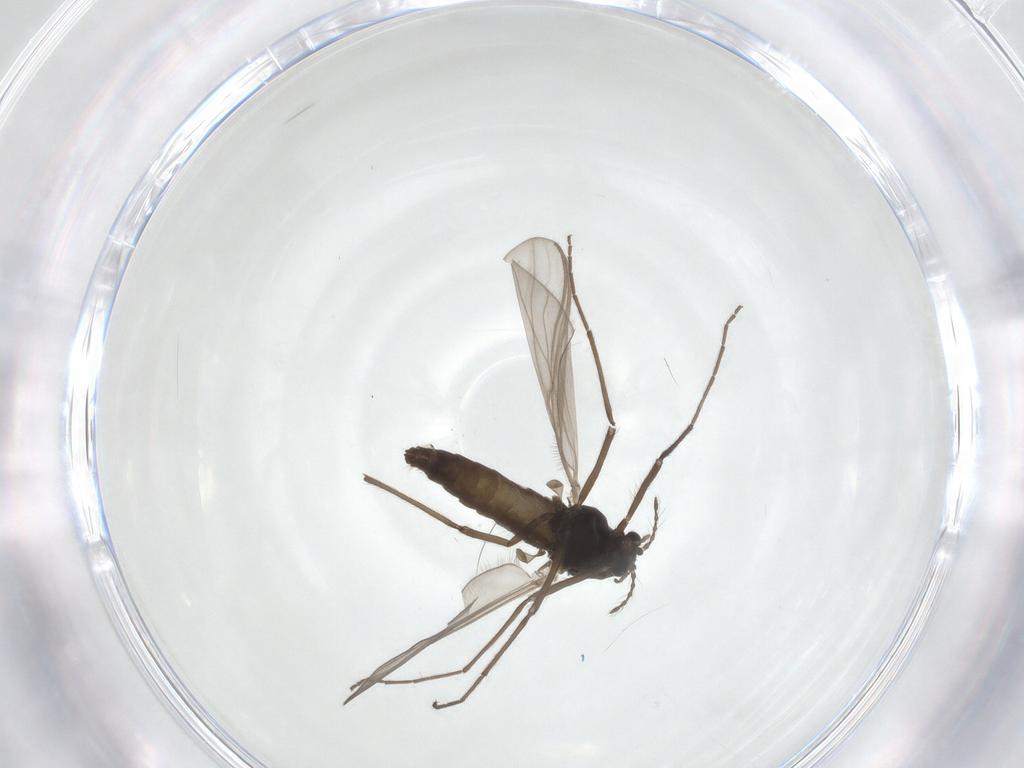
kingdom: Animalia
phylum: Arthropoda
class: Insecta
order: Diptera
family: Chironomidae
